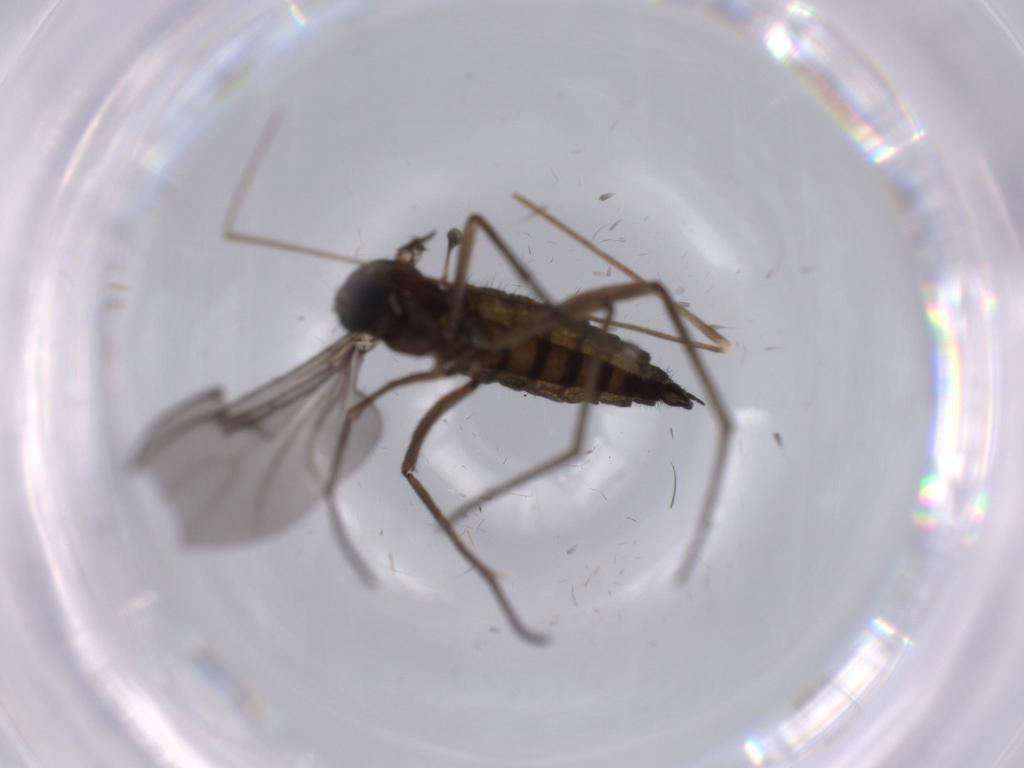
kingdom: Animalia
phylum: Arthropoda
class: Insecta
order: Diptera
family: Sciaridae
